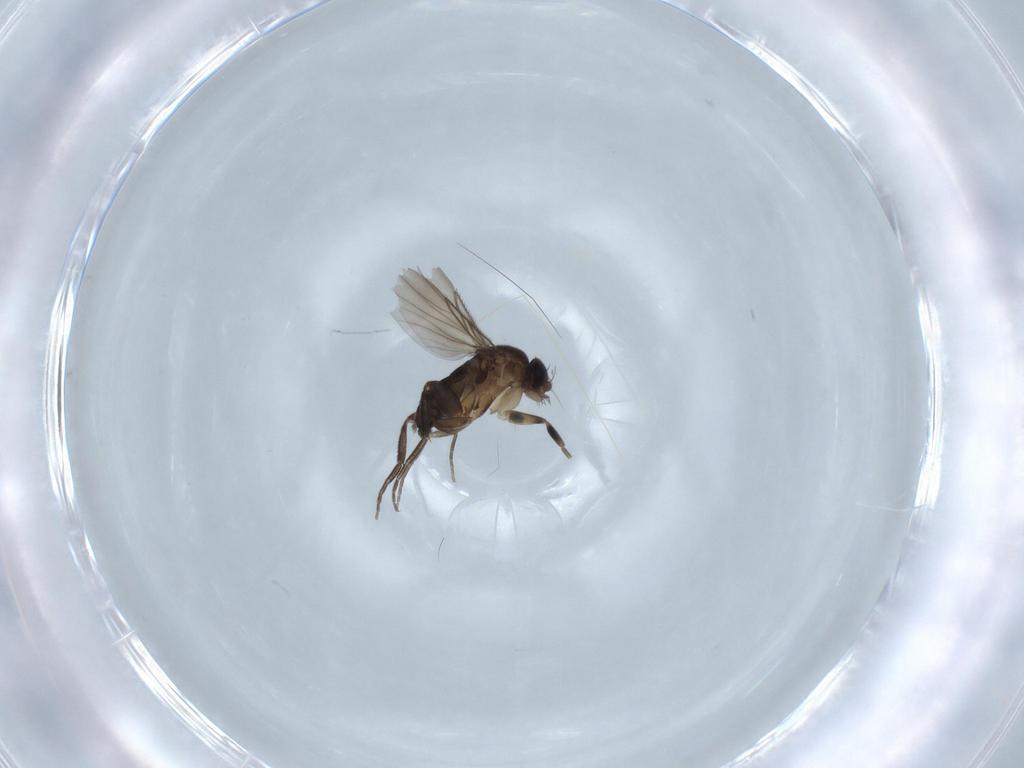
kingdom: Animalia
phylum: Arthropoda
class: Insecta
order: Diptera
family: Phoridae
